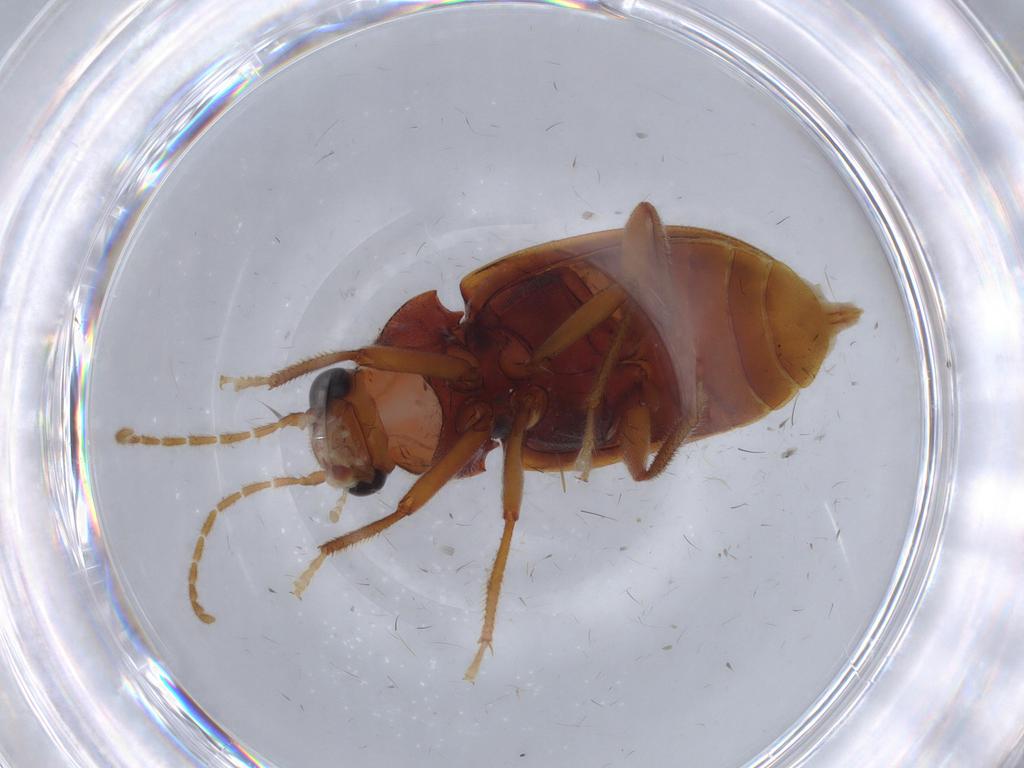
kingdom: Animalia
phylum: Arthropoda
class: Insecta
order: Coleoptera
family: Ptilodactylidae
